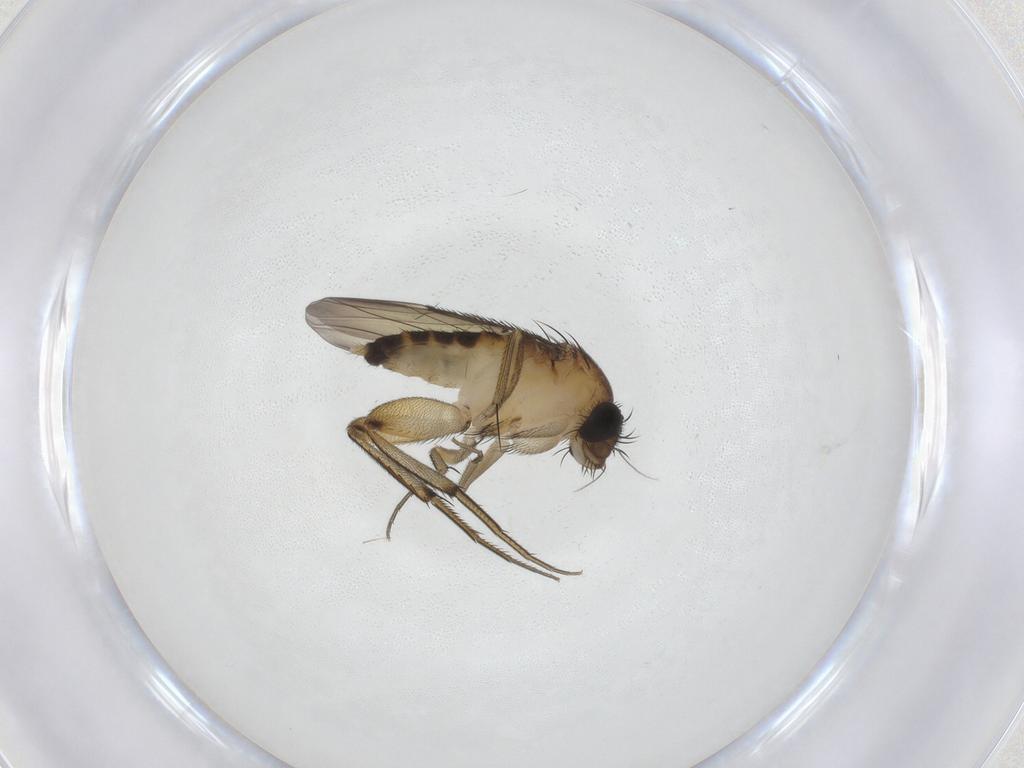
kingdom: Animalia
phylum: Arthropoda
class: Insecta
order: Diptera
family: Phoridae
